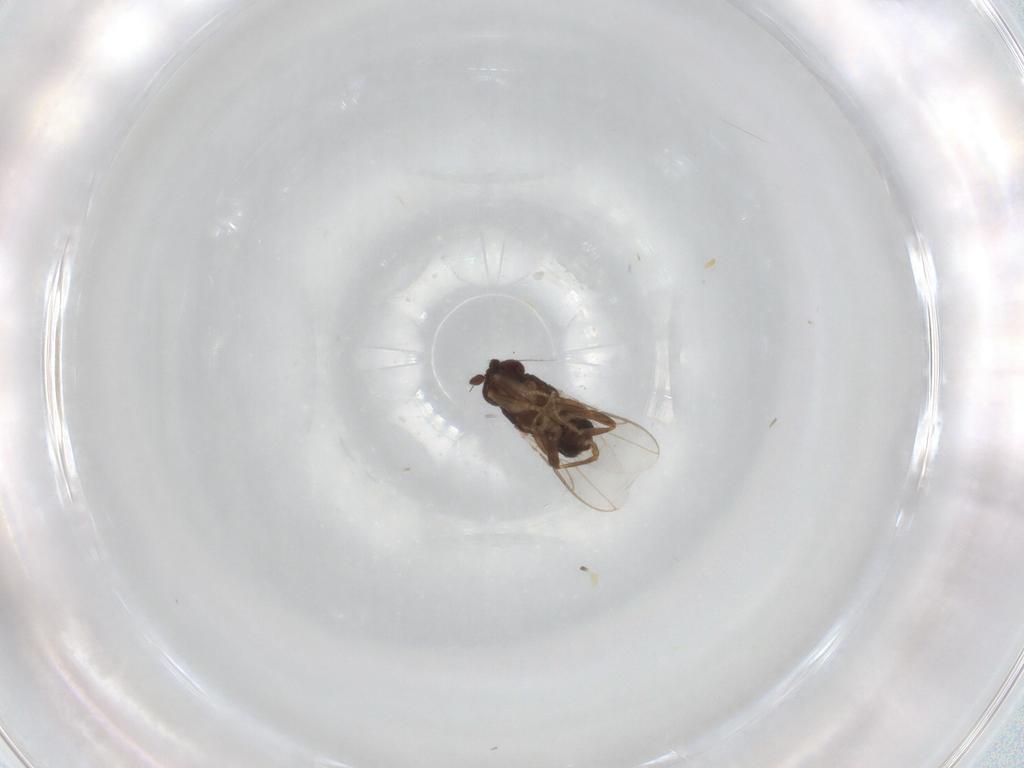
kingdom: Animalia
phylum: Arthropoda
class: Insecta
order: Diptera
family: Sphaeroceridae
